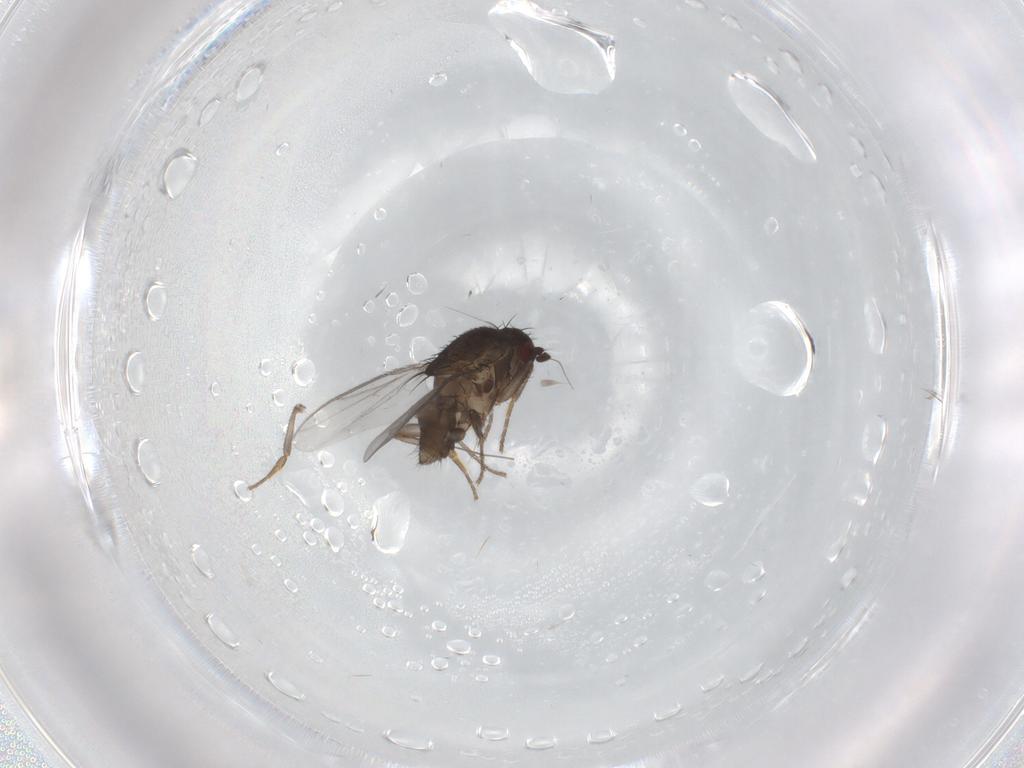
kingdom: Animalia
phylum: Arthropoda
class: Insecta
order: Diptera
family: Sphaeroceridae
